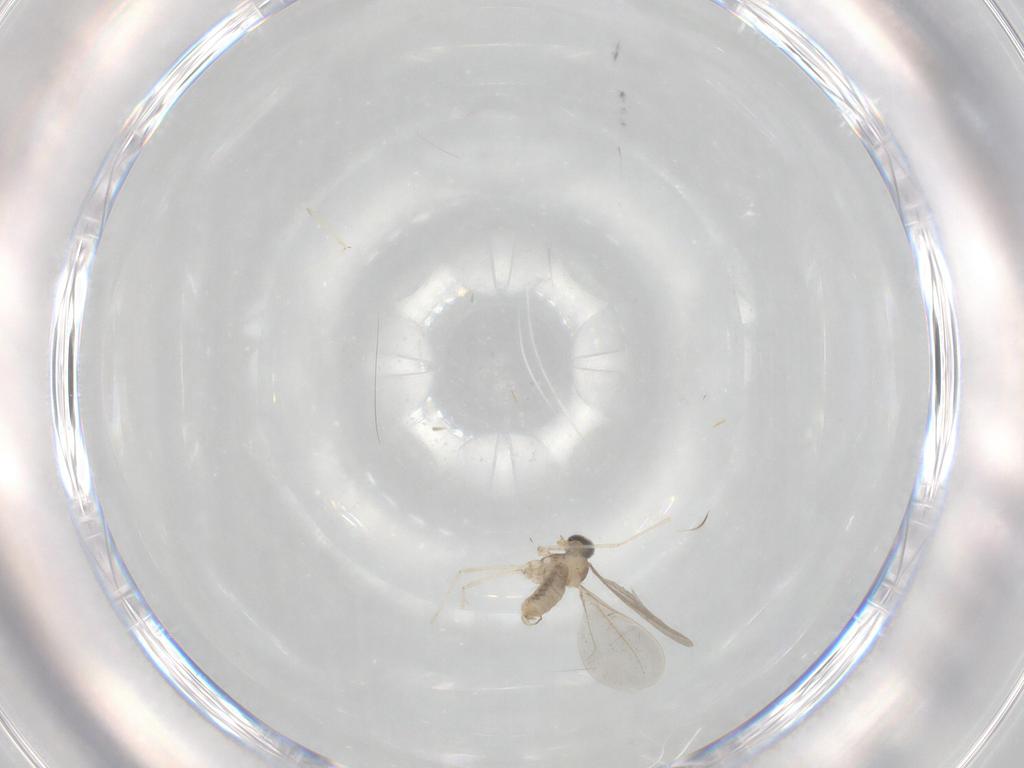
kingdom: Animalia
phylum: Arthropoda
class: Insecta
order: Diptera
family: Cecidomyiidae
